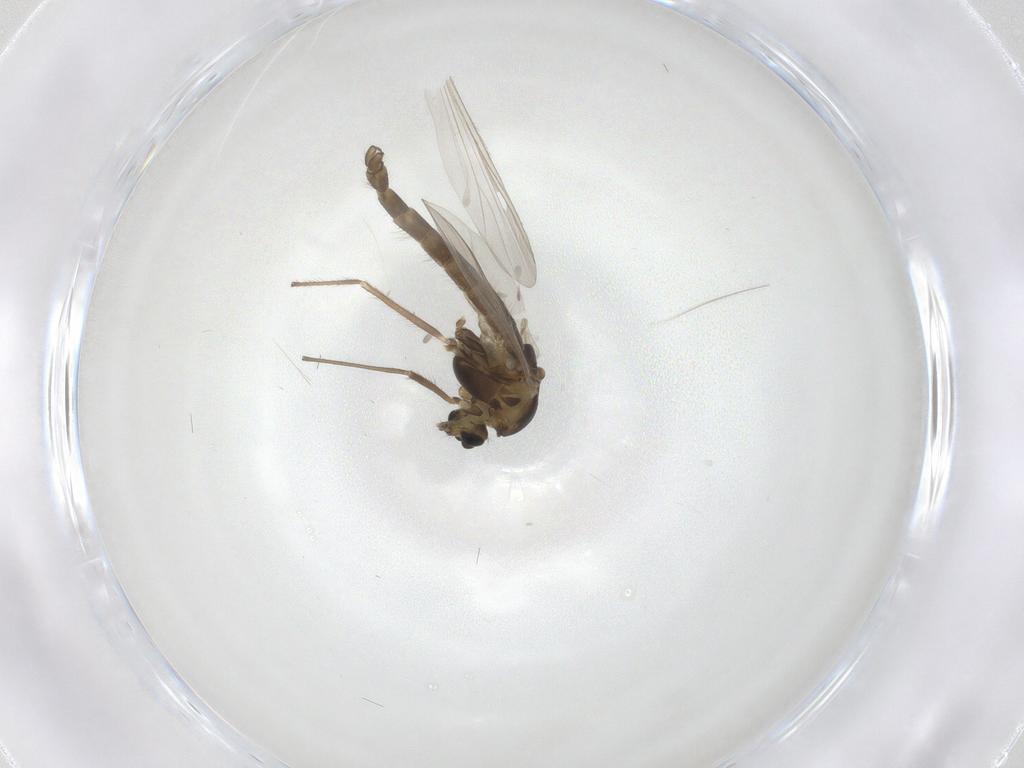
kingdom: Animalia
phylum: Arthropoda
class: Insecta
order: Diptera
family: Chironomidae
